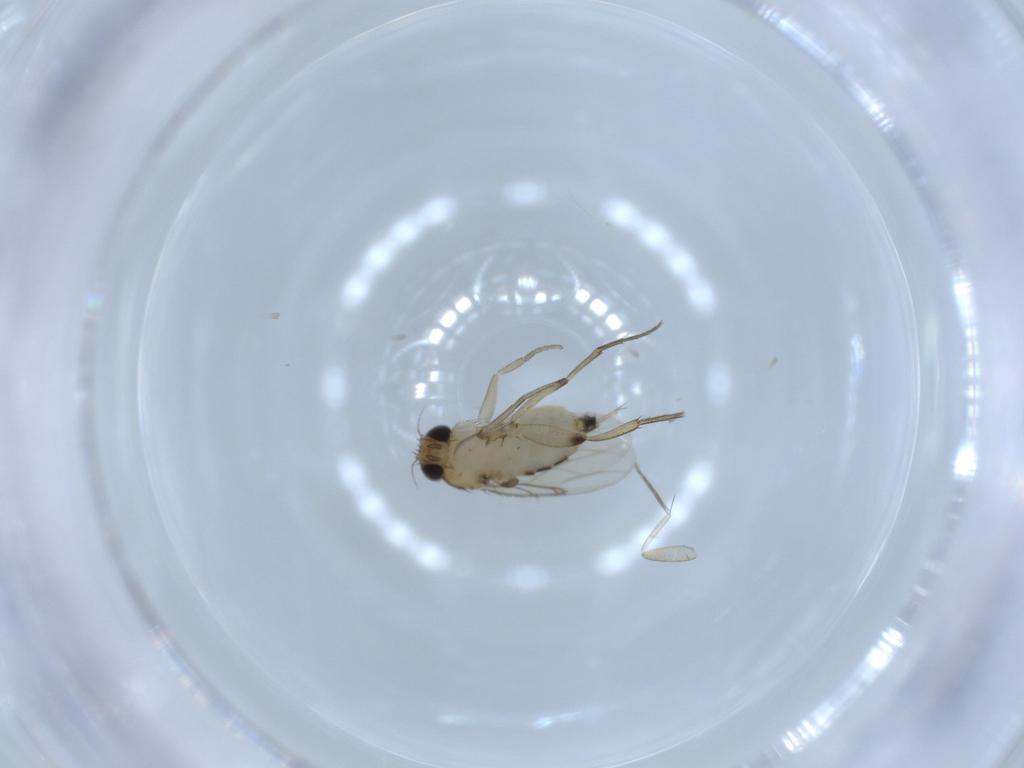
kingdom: Animalia
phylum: Arthropoda
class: Insecta
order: Diptera
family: Phoridae
